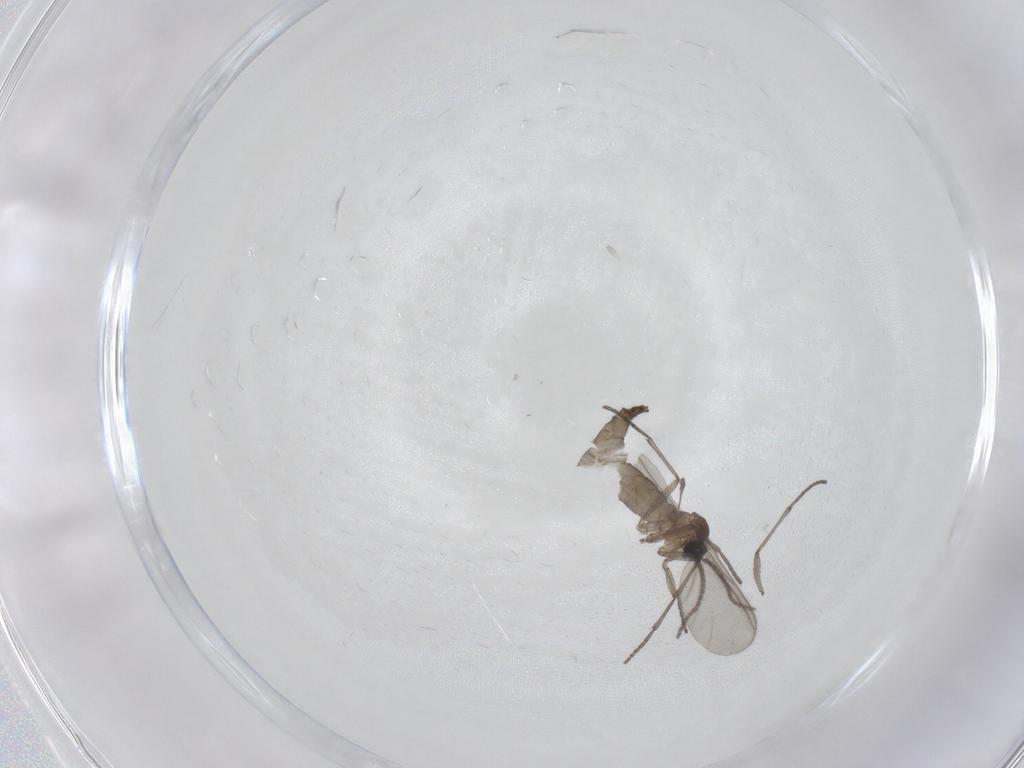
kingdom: Animalia
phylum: Arthropoda
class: Insecta
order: Diptera
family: Sciaridae
